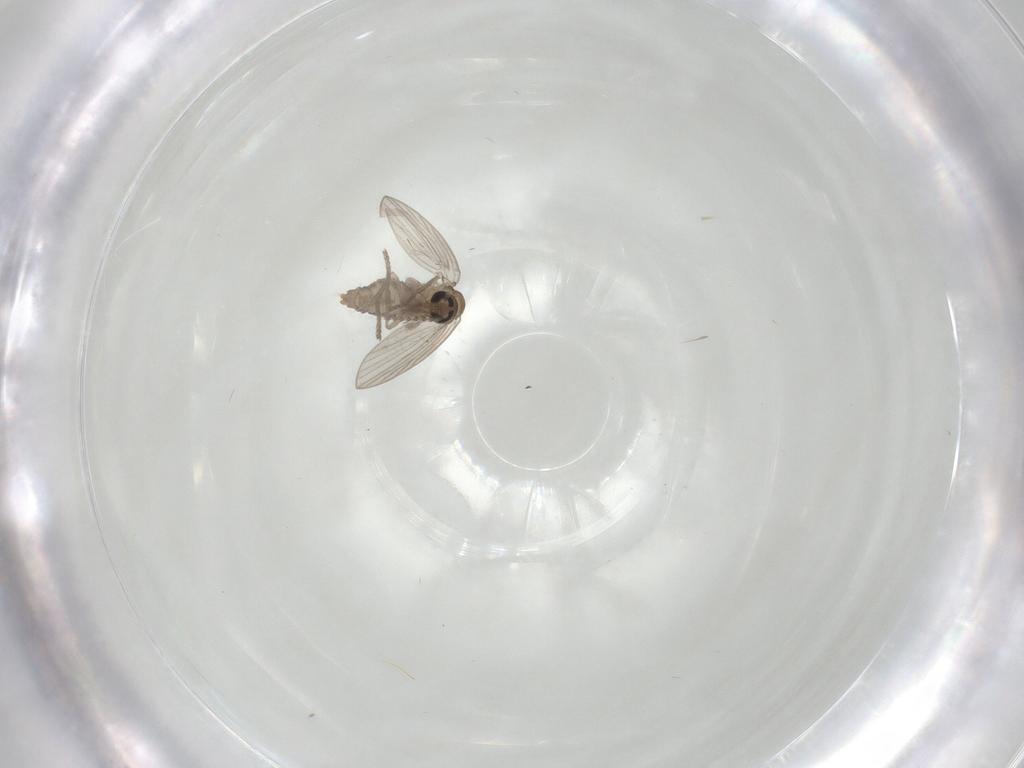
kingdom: Animalia
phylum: Arthropoda
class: Insecta
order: Diptera
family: Psychodidae
